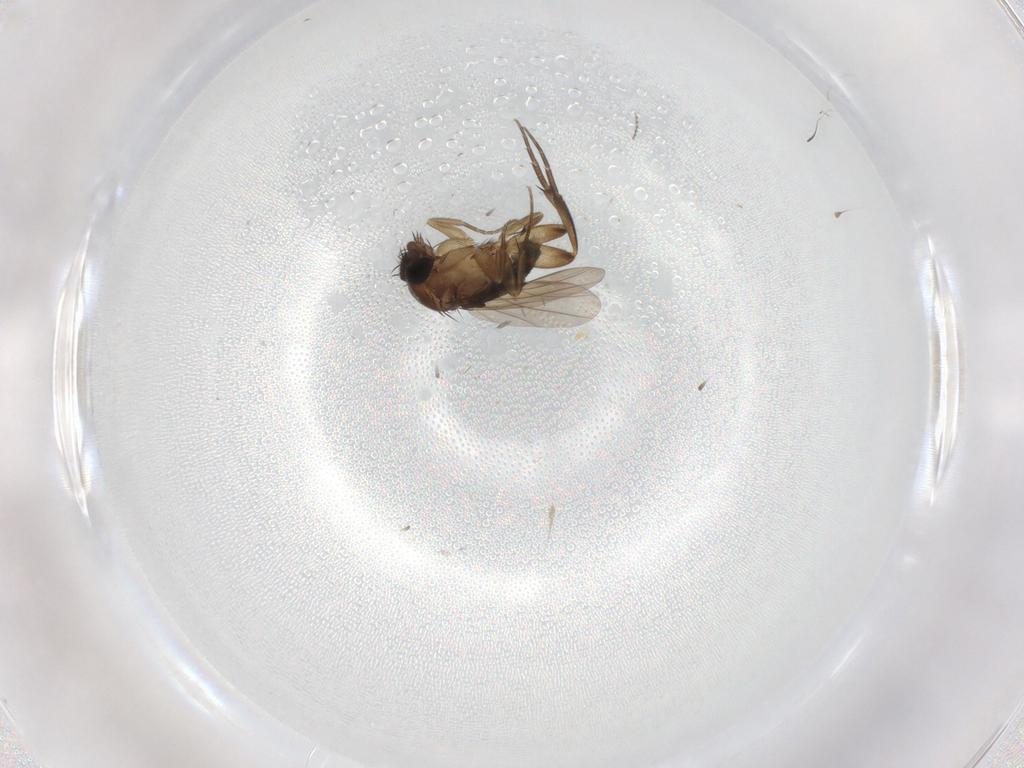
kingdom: Animalia
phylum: Arthropoda
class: Insecta
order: Diptera
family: Phoridae
